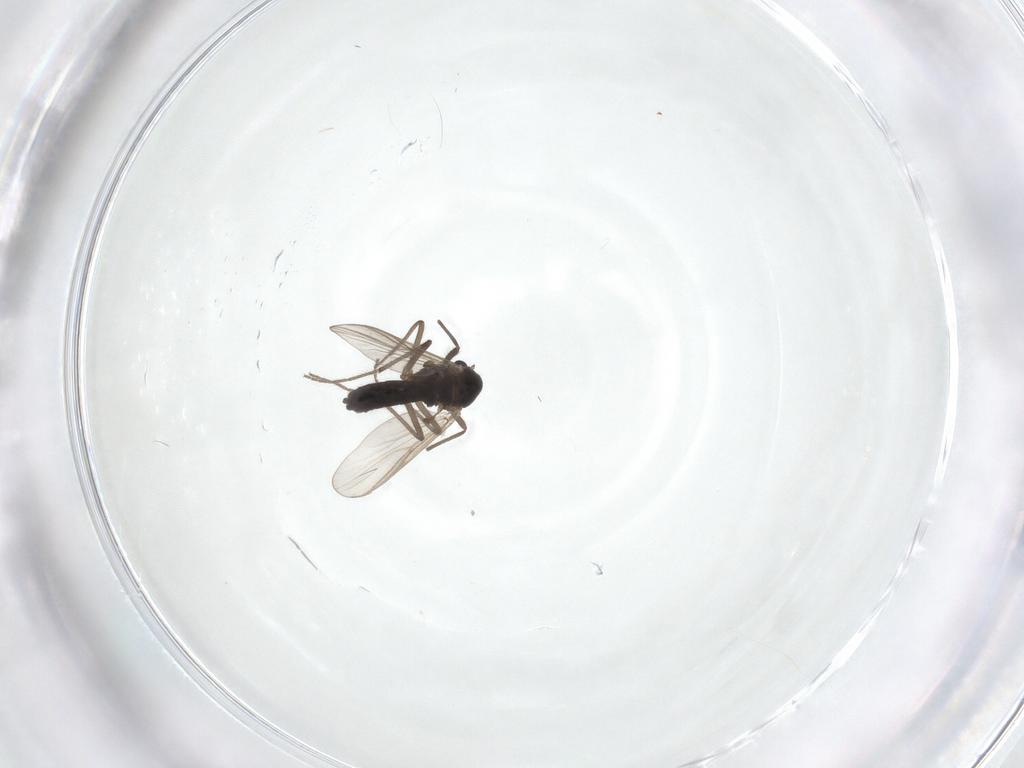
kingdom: Animalia
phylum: Arthropoda
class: Insecta
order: Diptera
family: Chironomidae
